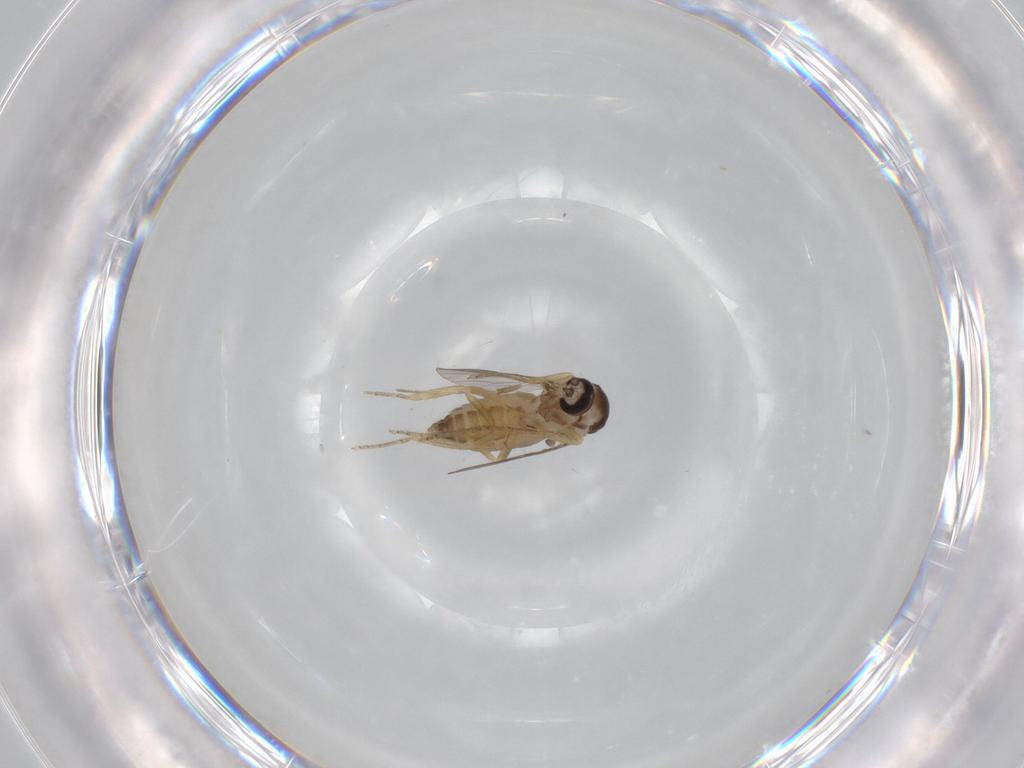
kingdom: Animalia
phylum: Arthropoda
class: Insecta
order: Diptera
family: Ceratopogonidae
